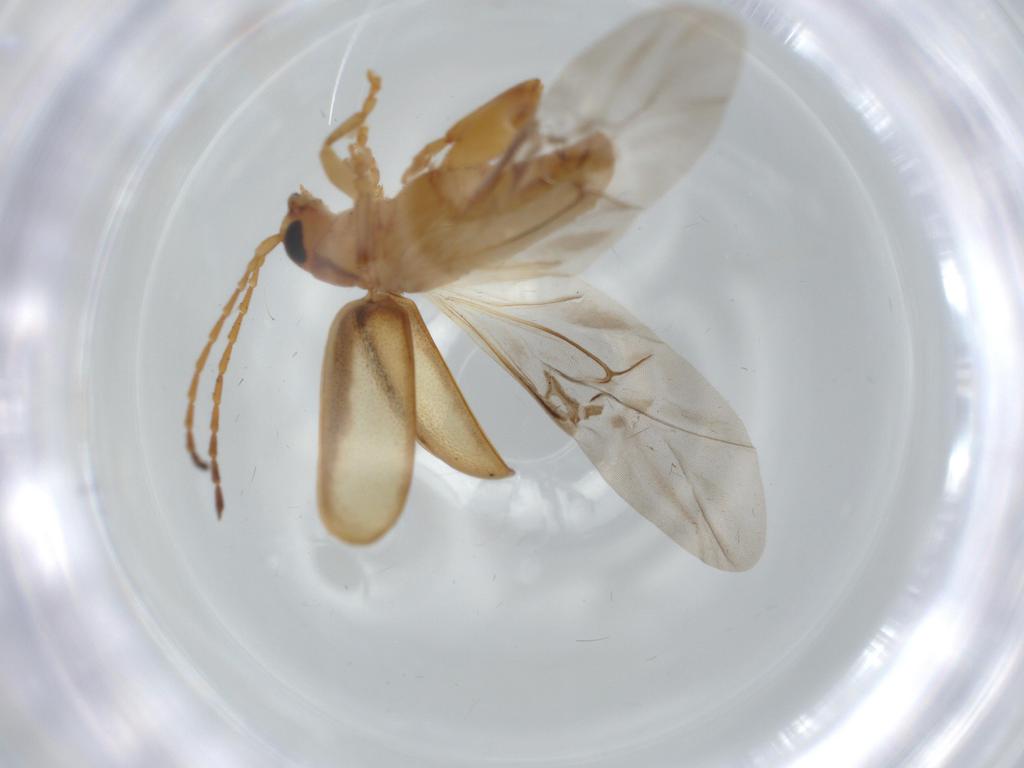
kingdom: Animalia
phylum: Arthropoda
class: Insecta
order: Coleoptera
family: Chrysomelidae
